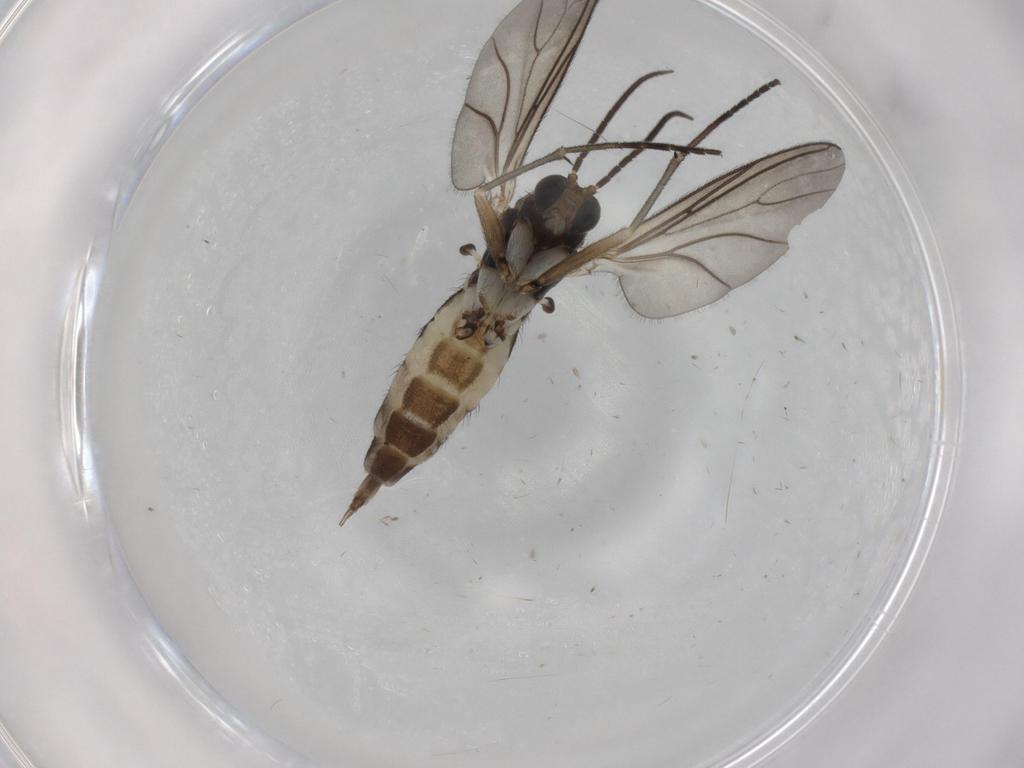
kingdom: Animalia
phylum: Arthropoda
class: Insecta
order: Diptera
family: Sciaridae
